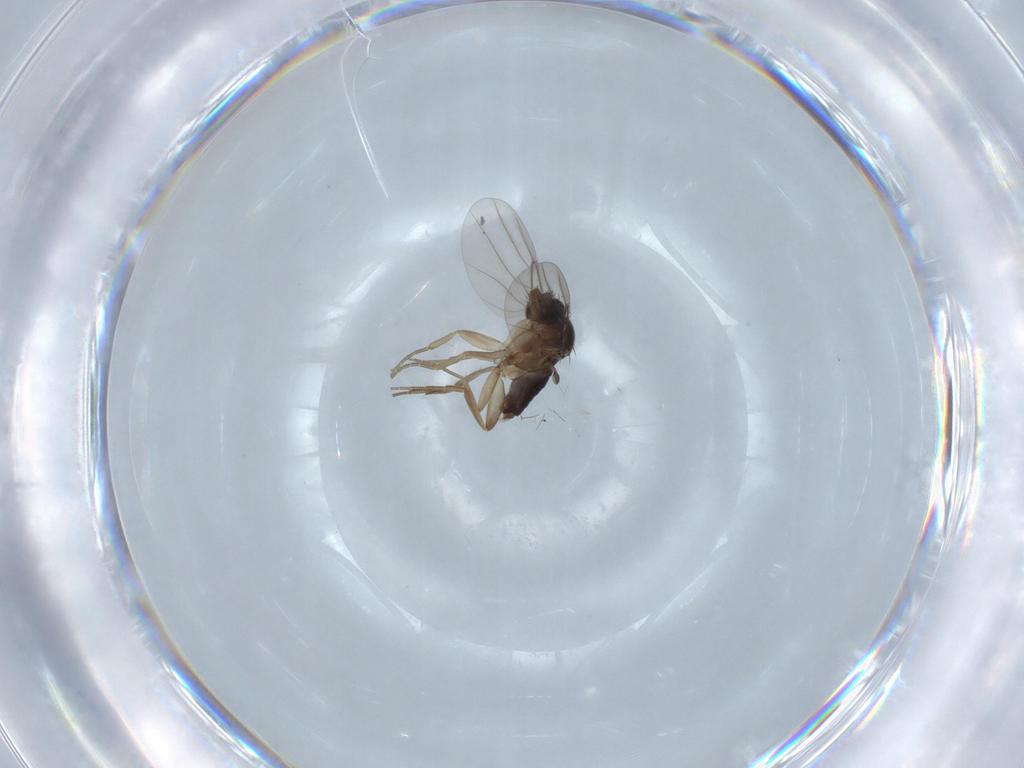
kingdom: Animalia
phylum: Arthropoda
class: Insecta
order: Diptera
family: Phoridae
